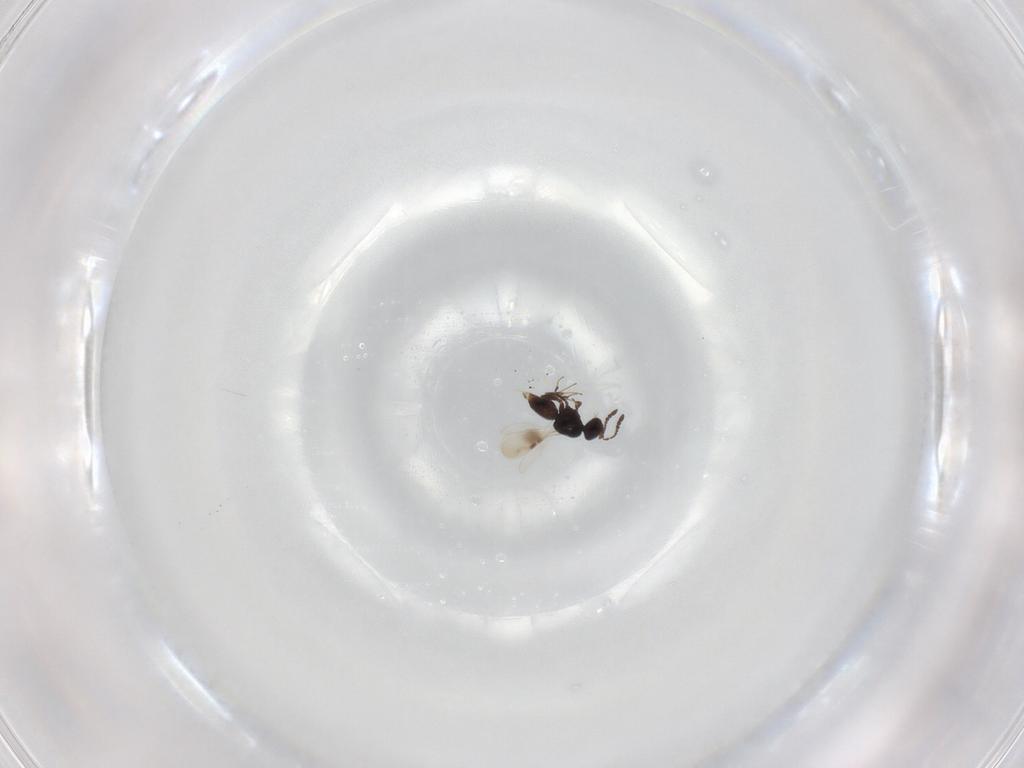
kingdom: Animalia
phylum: Arthropoda
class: Insecta
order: Hymenoptera
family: Ceraphronidae
